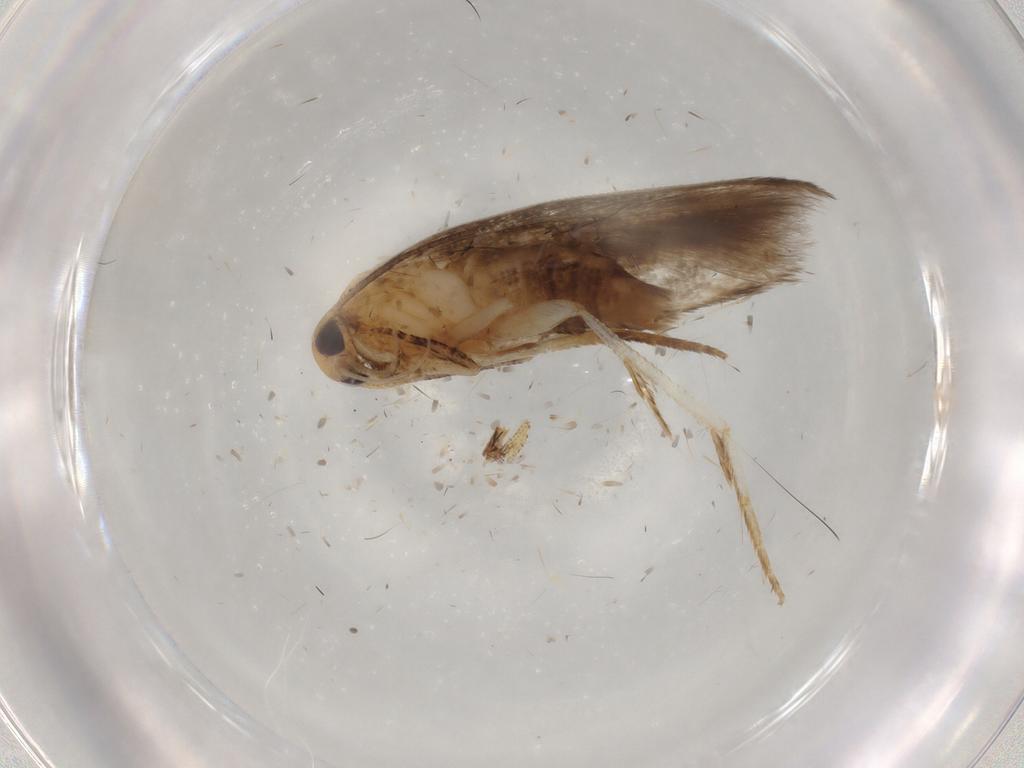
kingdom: Animalia
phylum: Arthropoda
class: Insecta
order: Lepidoptera
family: Cosmopterigidae
